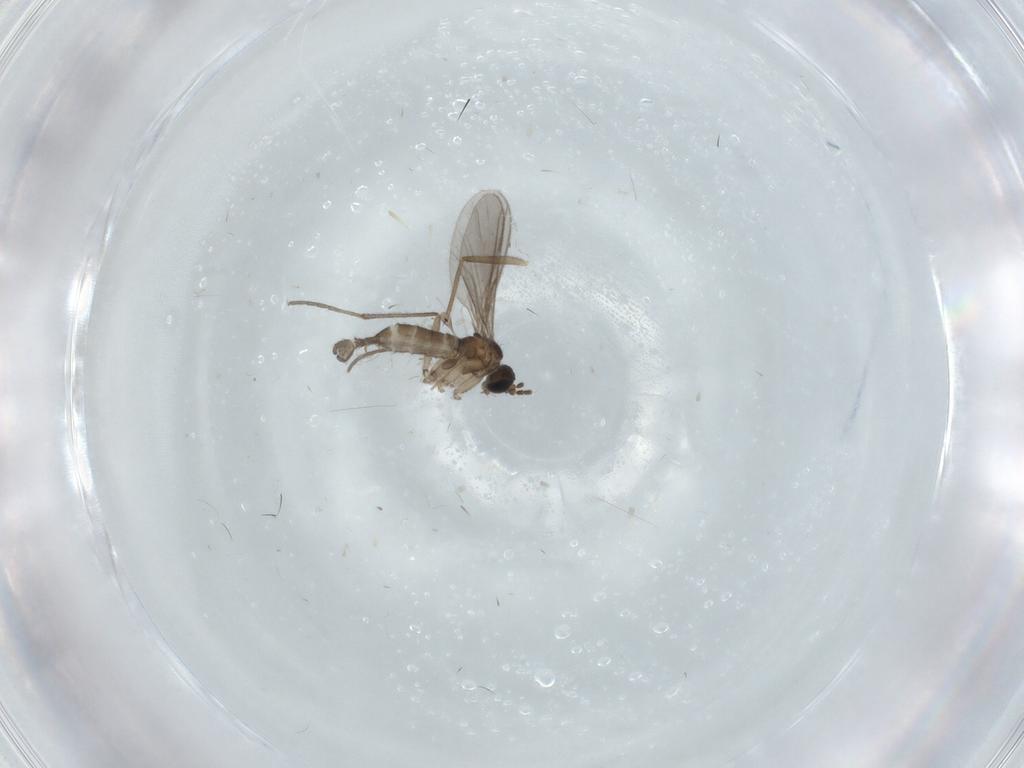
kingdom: Animalia
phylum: Arthropoda
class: Insecta
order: Diptera
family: Sciaridae
